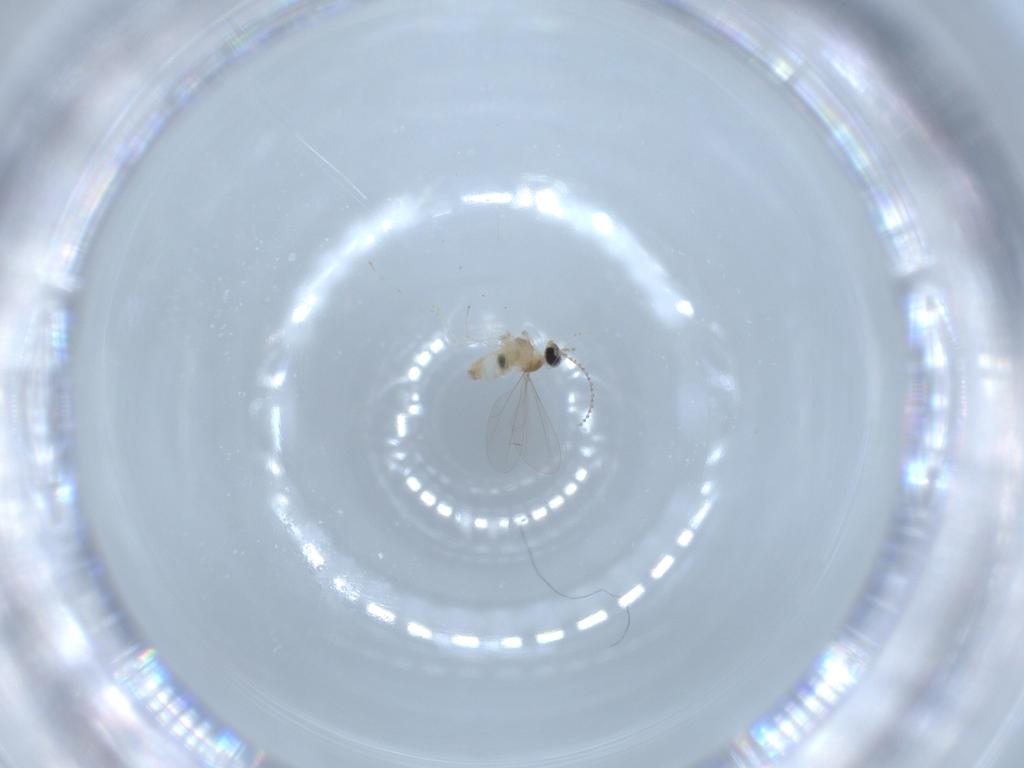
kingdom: Animalia
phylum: Arthropoda
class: Insecta
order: Diptera
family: Cecidomyiidae
